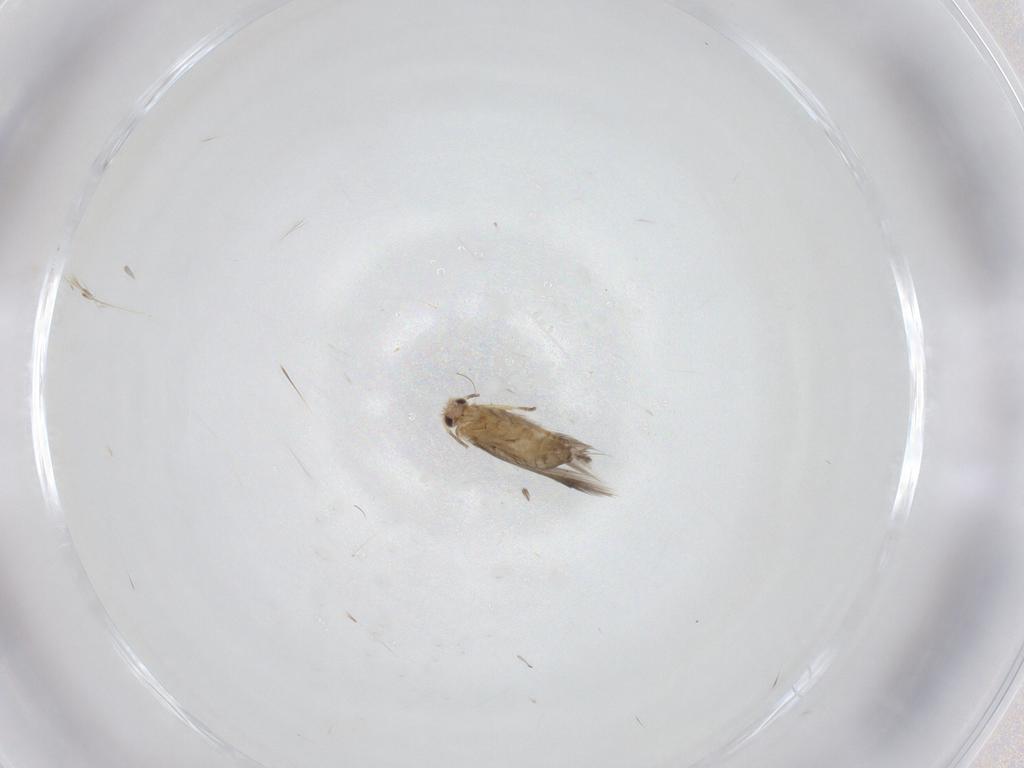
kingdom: Animalia
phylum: Arthropoda
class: Insecta
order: Lepidoptera
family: Nepticulidae
